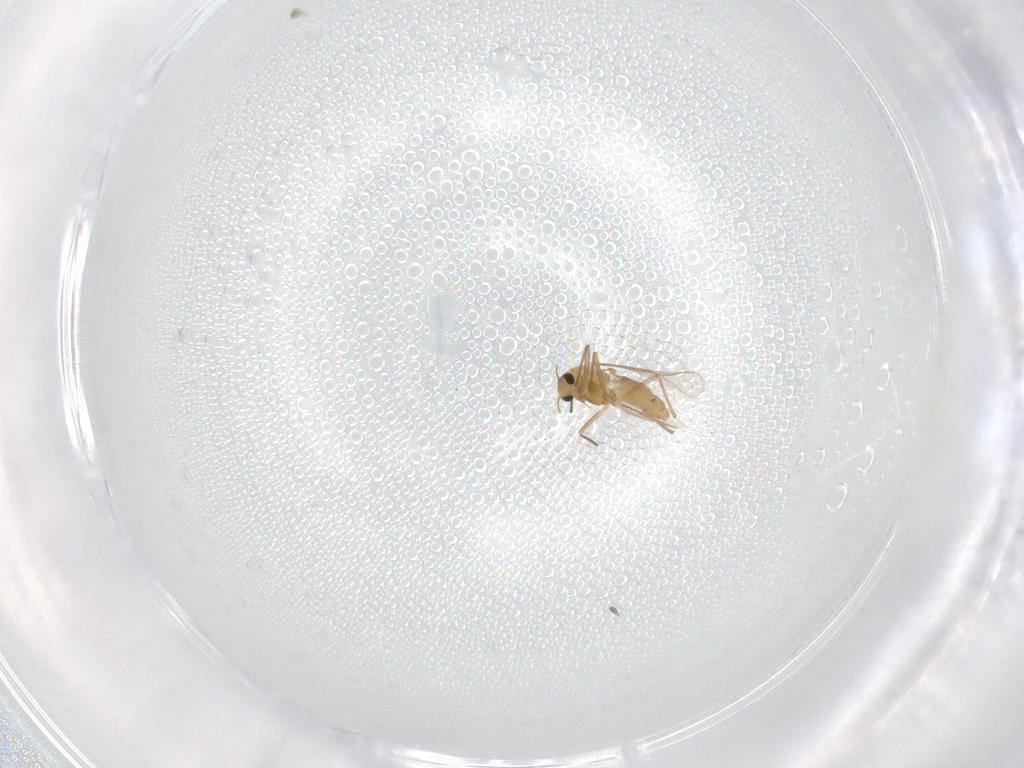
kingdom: Animalia
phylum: Arthropoda
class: Insecta
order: Diptera
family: Chironomidae
